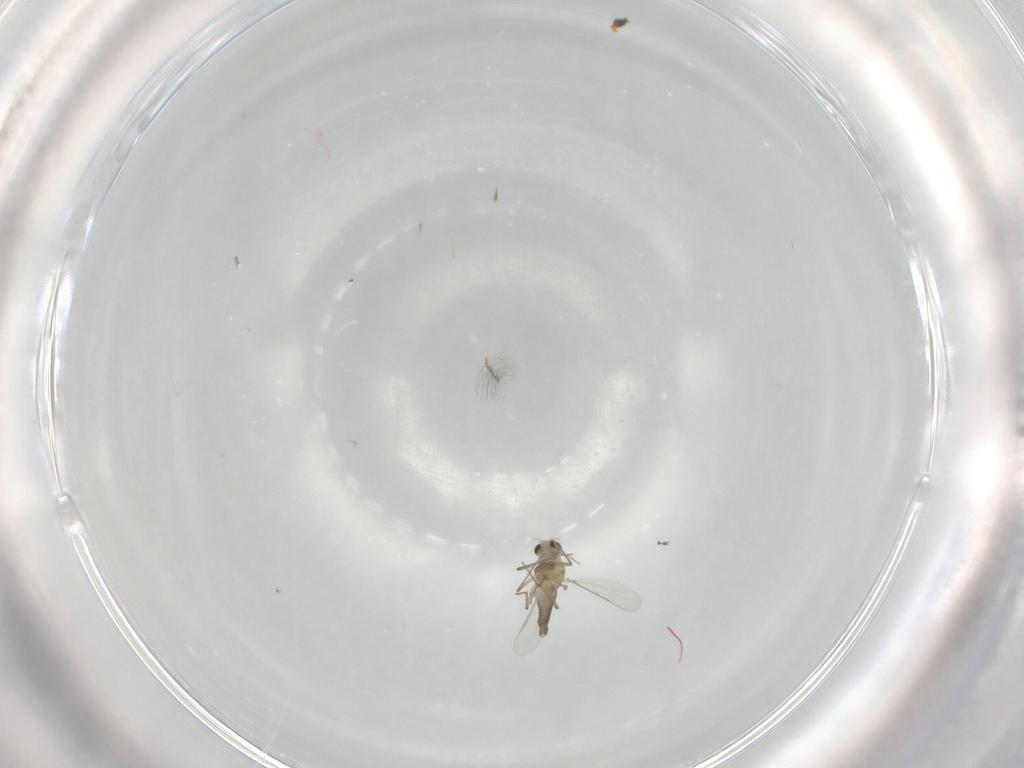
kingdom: Animalia
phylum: Arthropoda
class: Insecta
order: Diptera
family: Chironomidae
